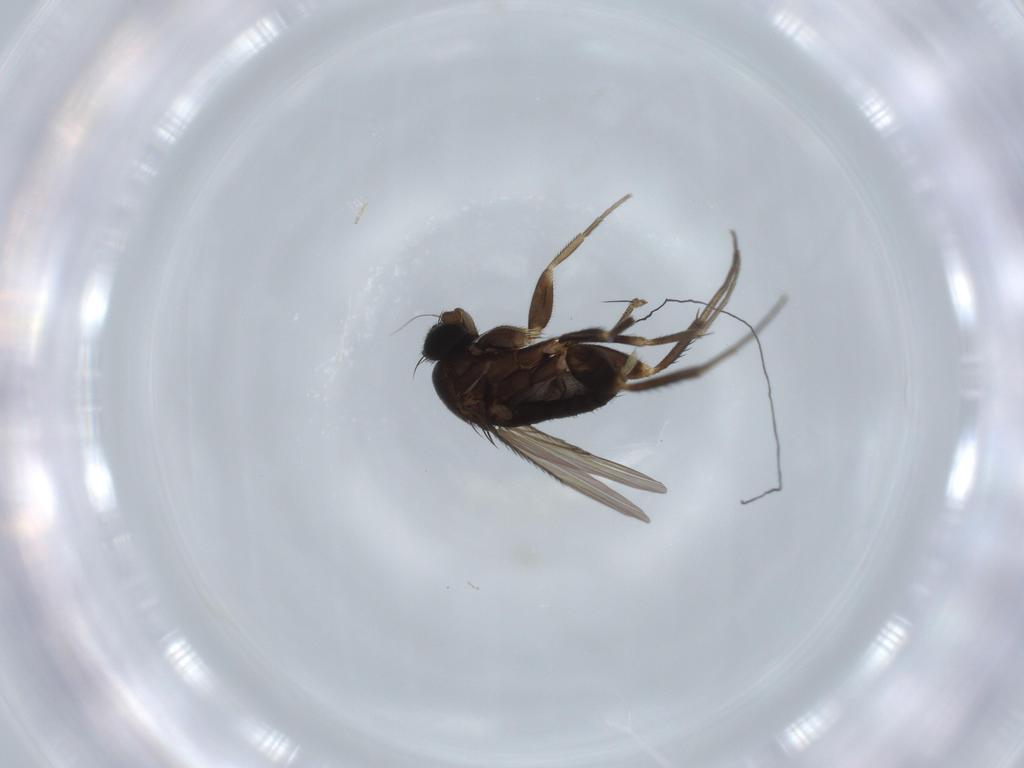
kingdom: Animalia
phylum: Arthropoda
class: Insecta
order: Diptera
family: Phoridae
